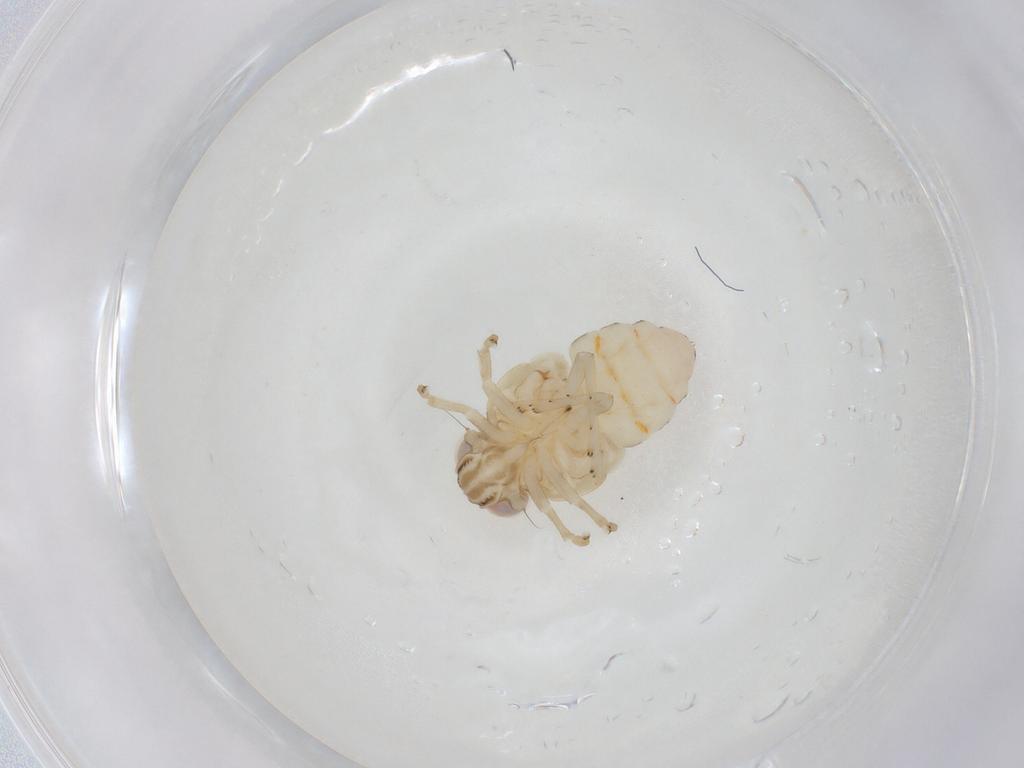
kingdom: Animalia
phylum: Arthropoda
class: Insecta
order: Hemiptera
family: Nogodinidae
